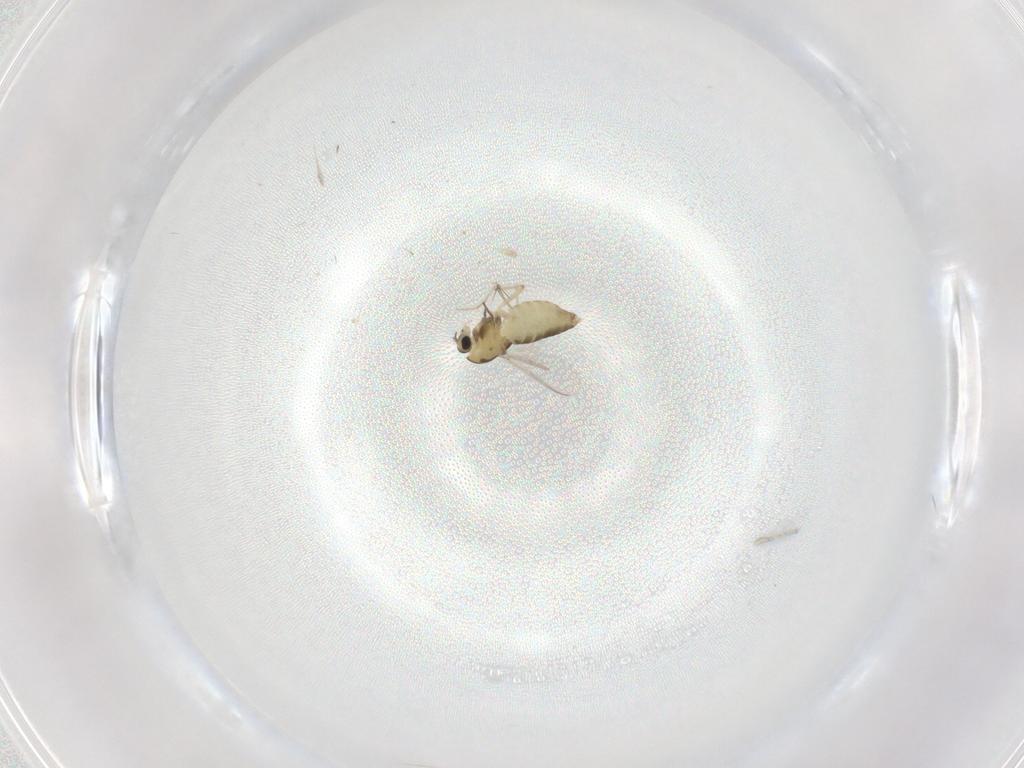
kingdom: Animalia
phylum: Arthropoda
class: Insecta
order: Diptera
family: Chironomidae
